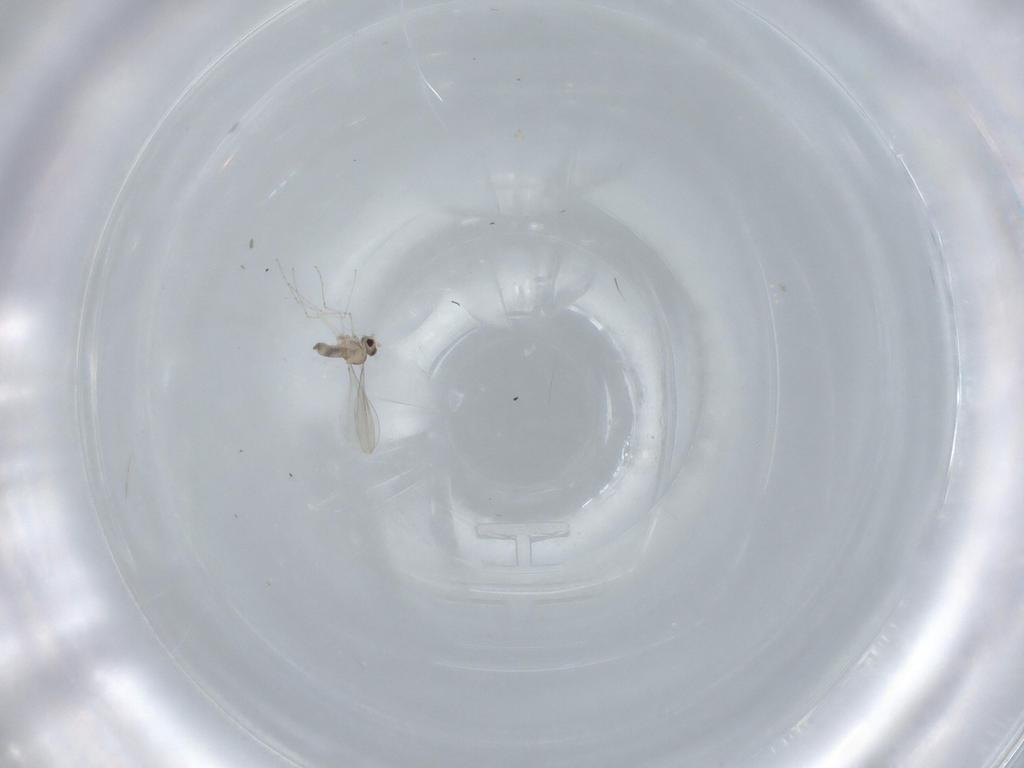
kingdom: Animalia
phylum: Arthropoda
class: Insecta
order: Diptera
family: Cecidomyiidae
